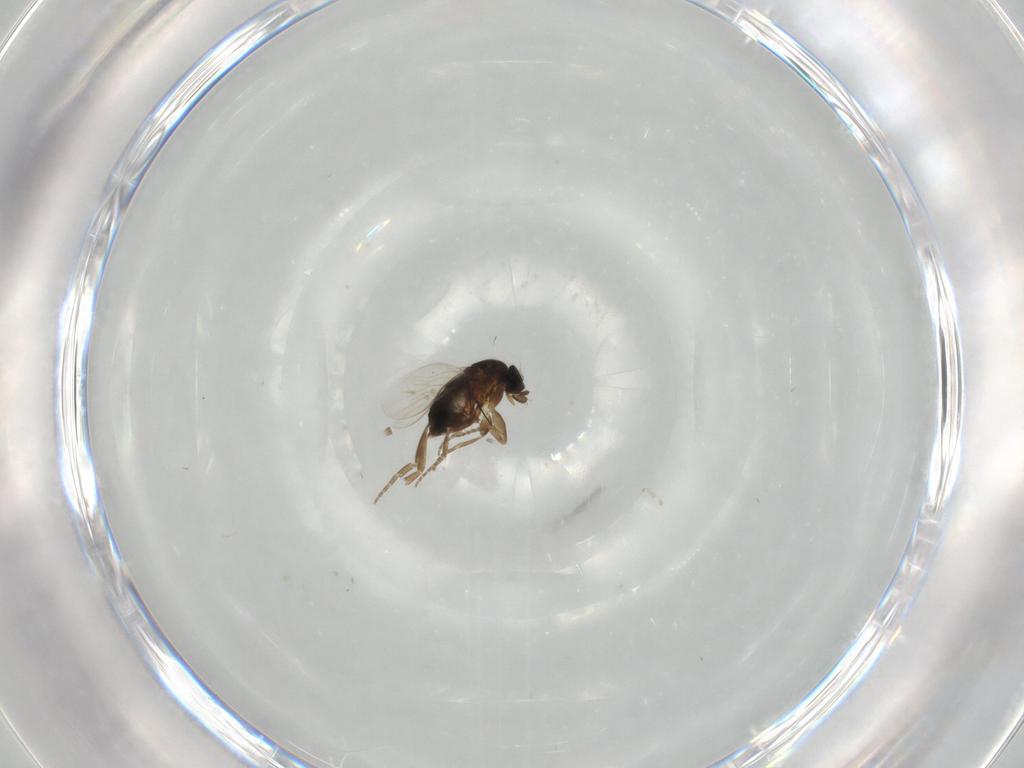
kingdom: Animalia
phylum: Arthropoda
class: Insecta
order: Diptera
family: Phoridae
